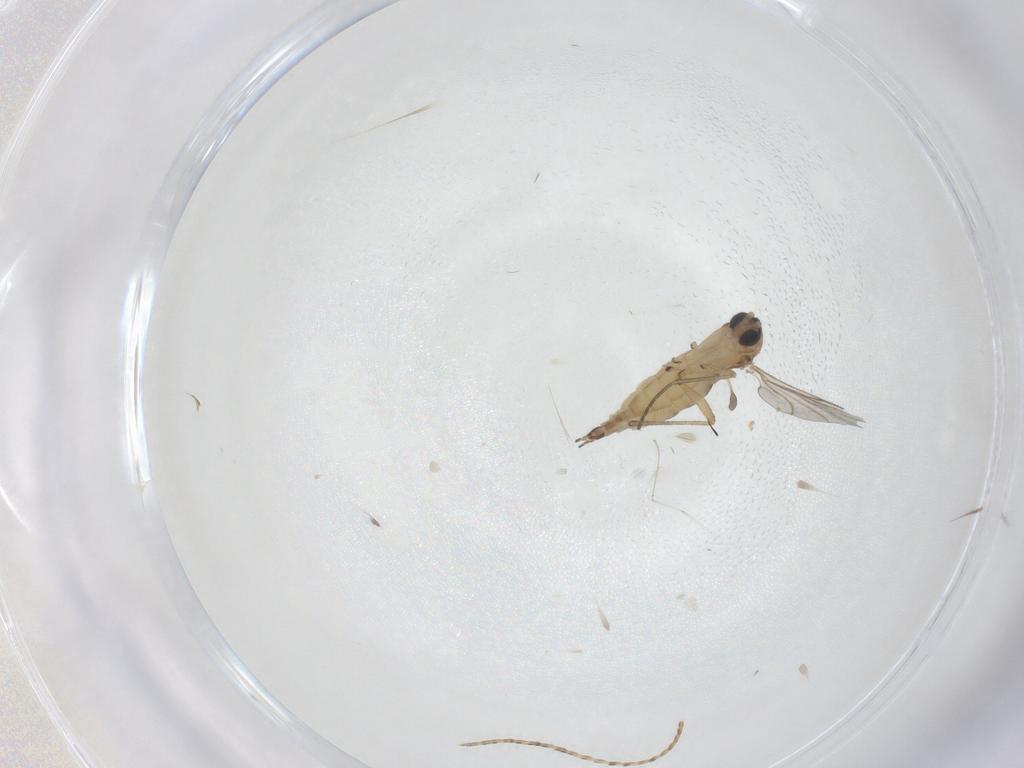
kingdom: Animalia
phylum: Arthropoda
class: Insecta
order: Diptera
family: Sciaridae
